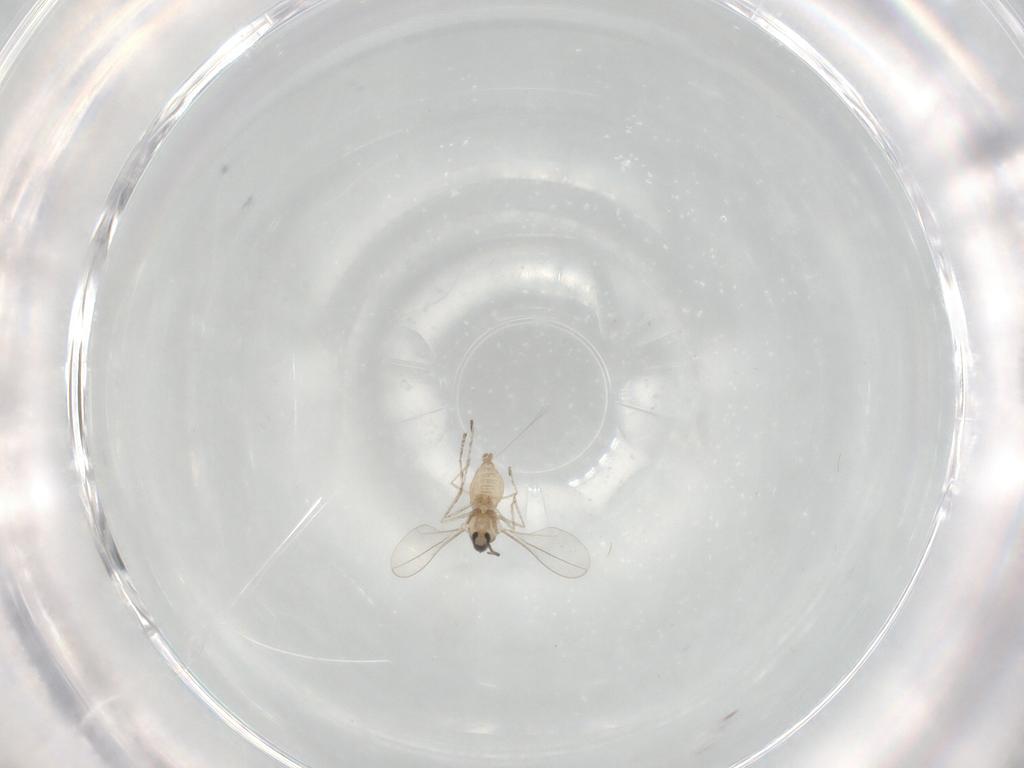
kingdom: Animalia
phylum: Arthropoda
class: Insecta
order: Diptera
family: Cecidomyiidae
